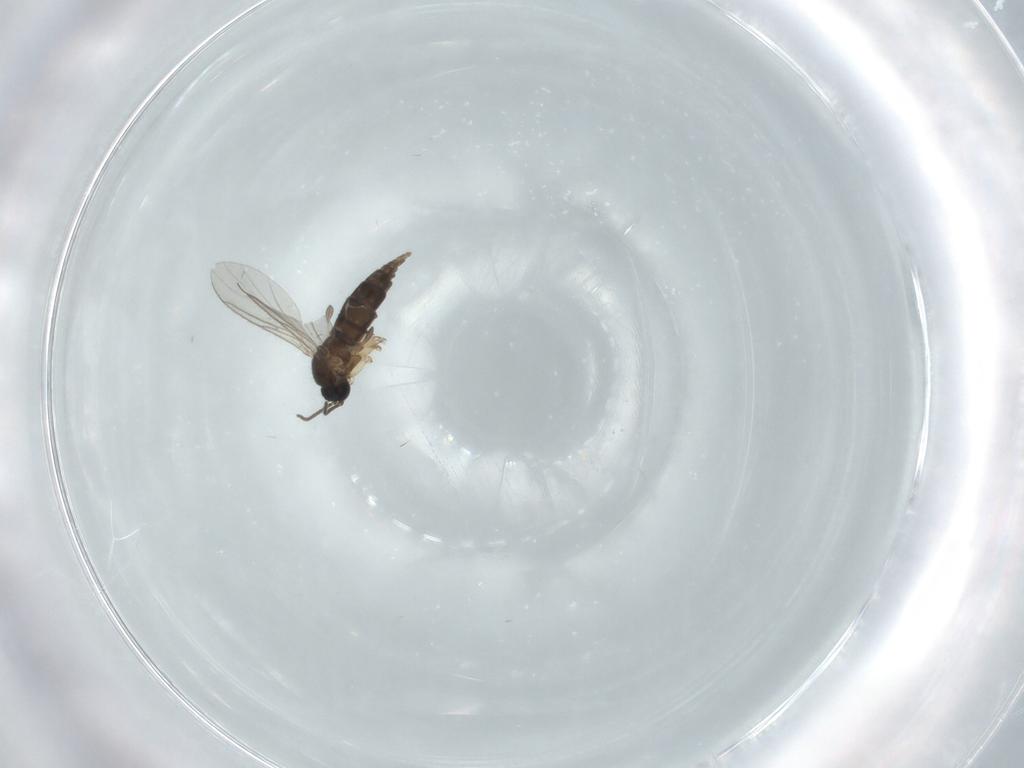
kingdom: Animalia
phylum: Arthropoda
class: Insecta
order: Diptera
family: Sciaridae
